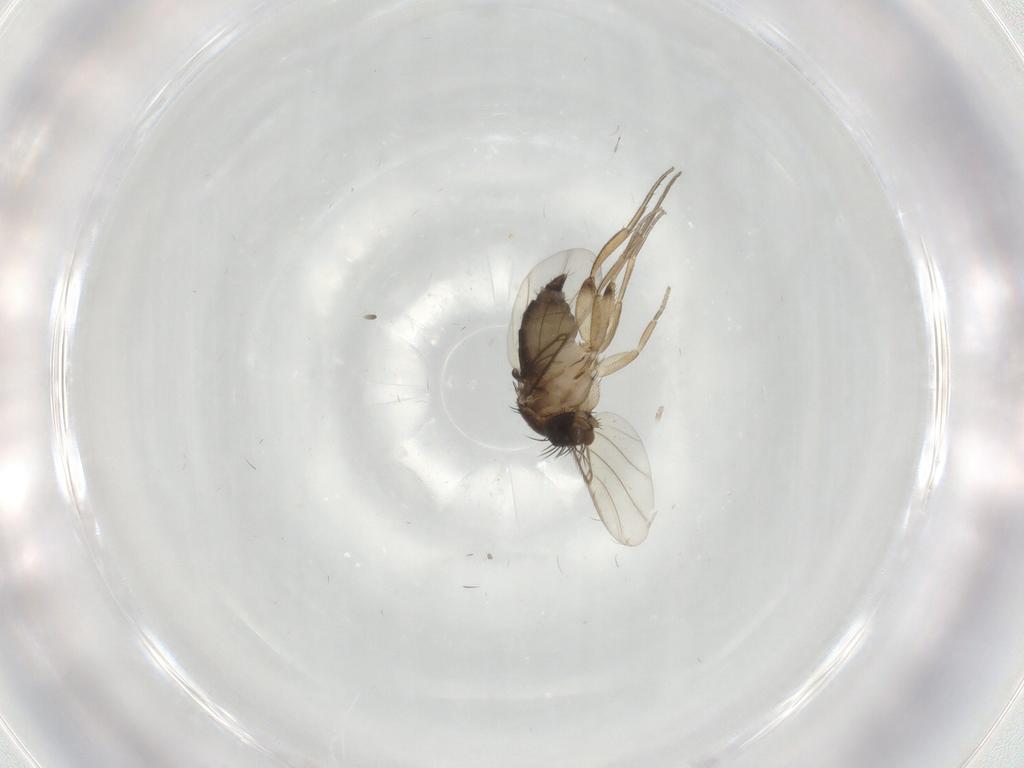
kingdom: Animalia
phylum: Arthropoda
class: Insecta
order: Diptera
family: Phoridae
